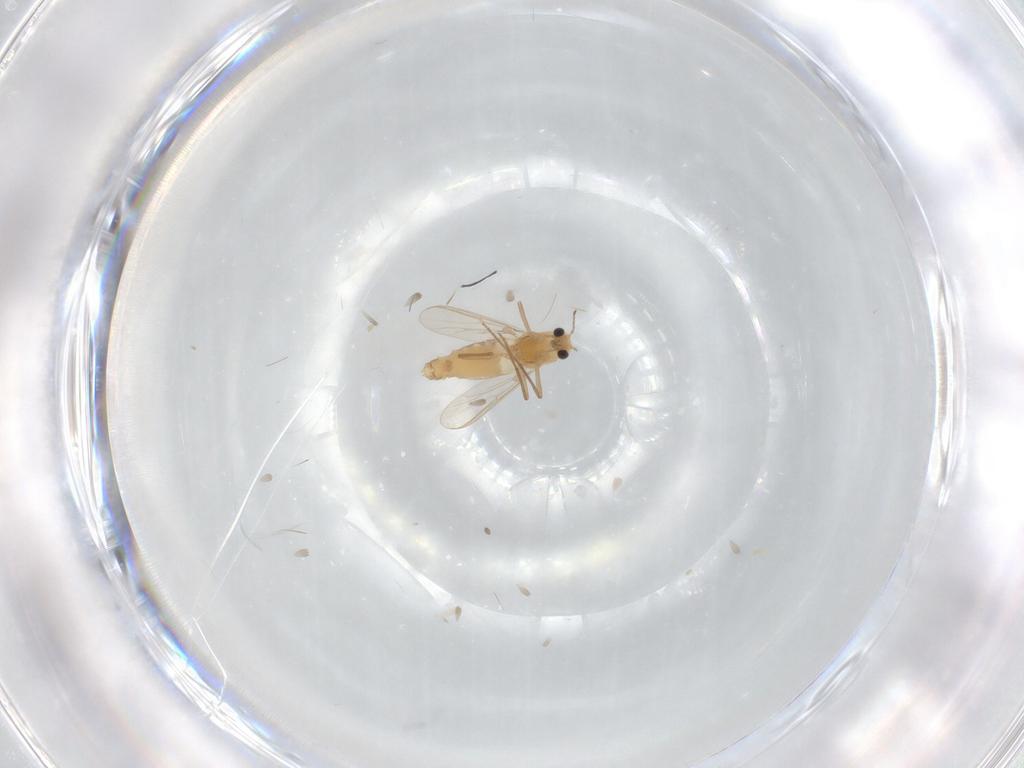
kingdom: Animalia
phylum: Arthropoda
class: Insecta
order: Diptera
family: Chironomidae
